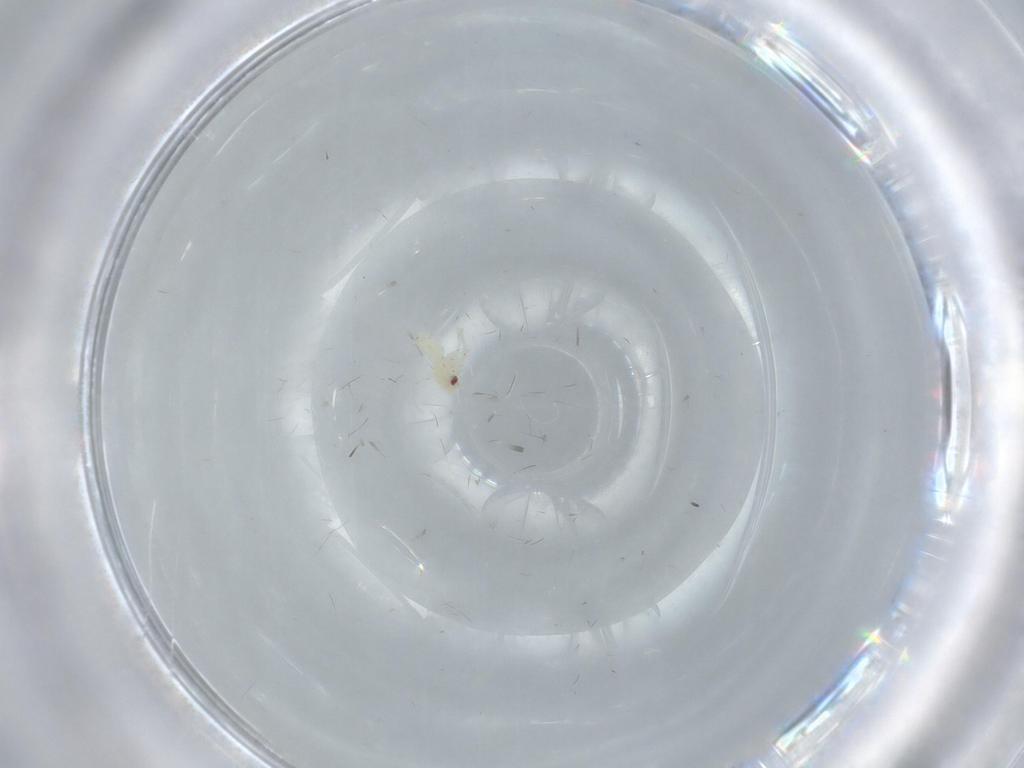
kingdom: Animalia
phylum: Arthropoda
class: Insecta
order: Hemiptera
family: Aleyrodidae
